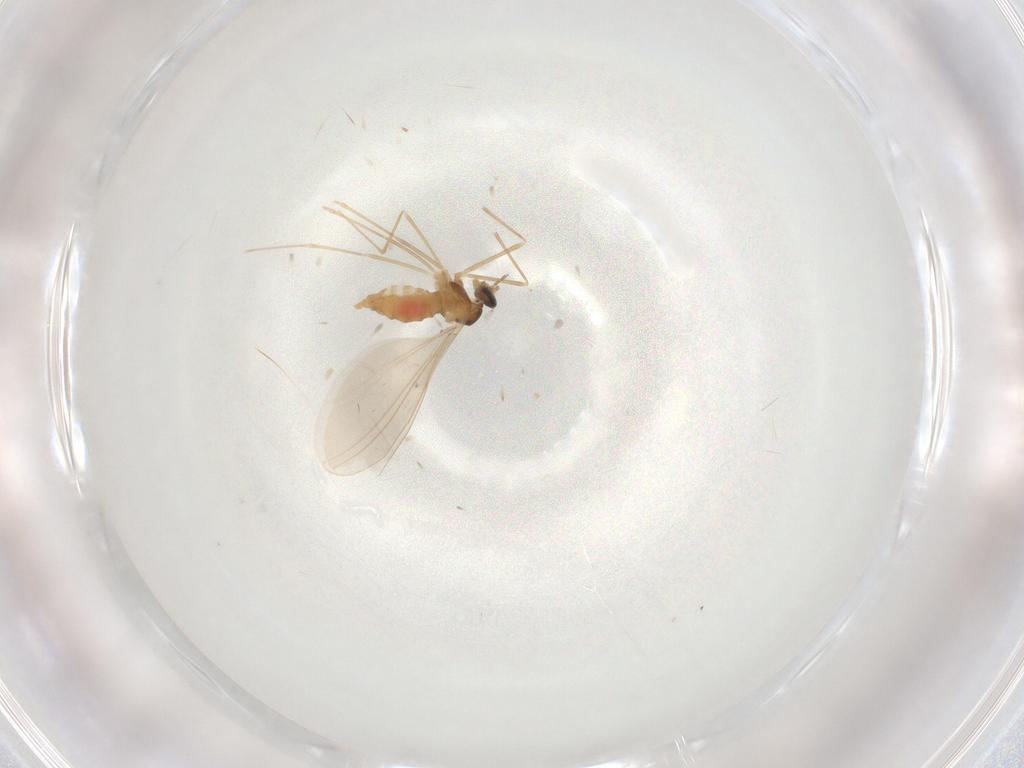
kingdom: Animalia
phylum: Arthropoda
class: Insecta
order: Diptera
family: Cecidomyiidae
